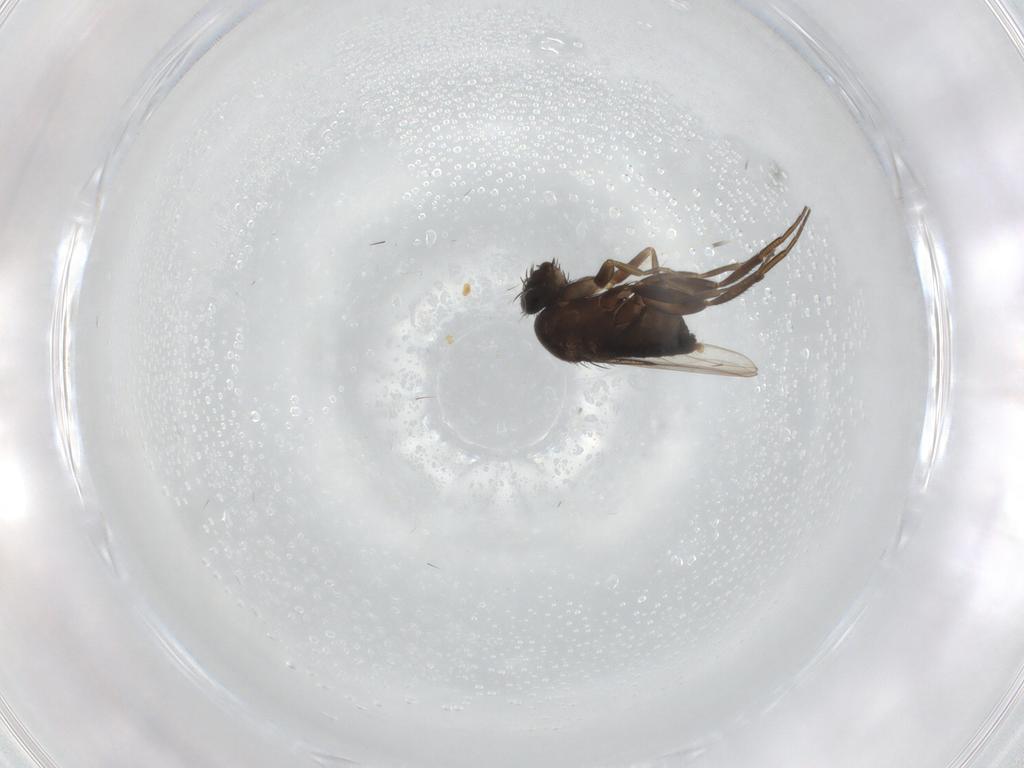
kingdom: Animalia
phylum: Arthropoda
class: Insecta
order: Diptera
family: Phoridae
